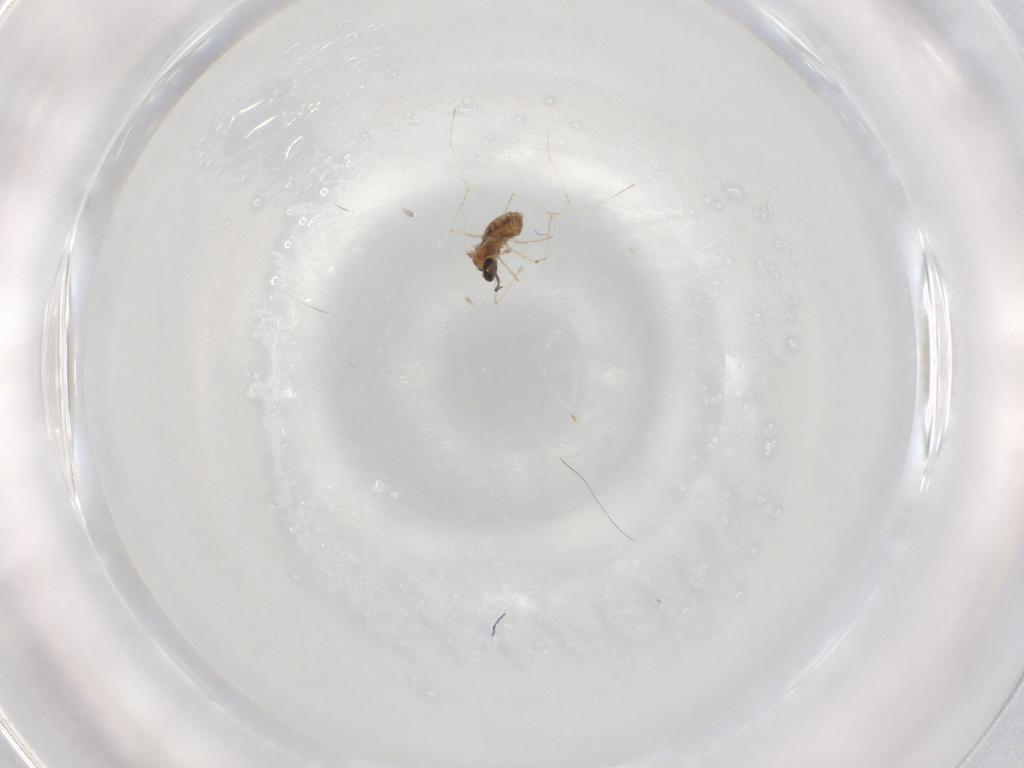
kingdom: Animalia
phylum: Arthropoda
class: Insecta
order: Diptera
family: Cecidomyiidae
